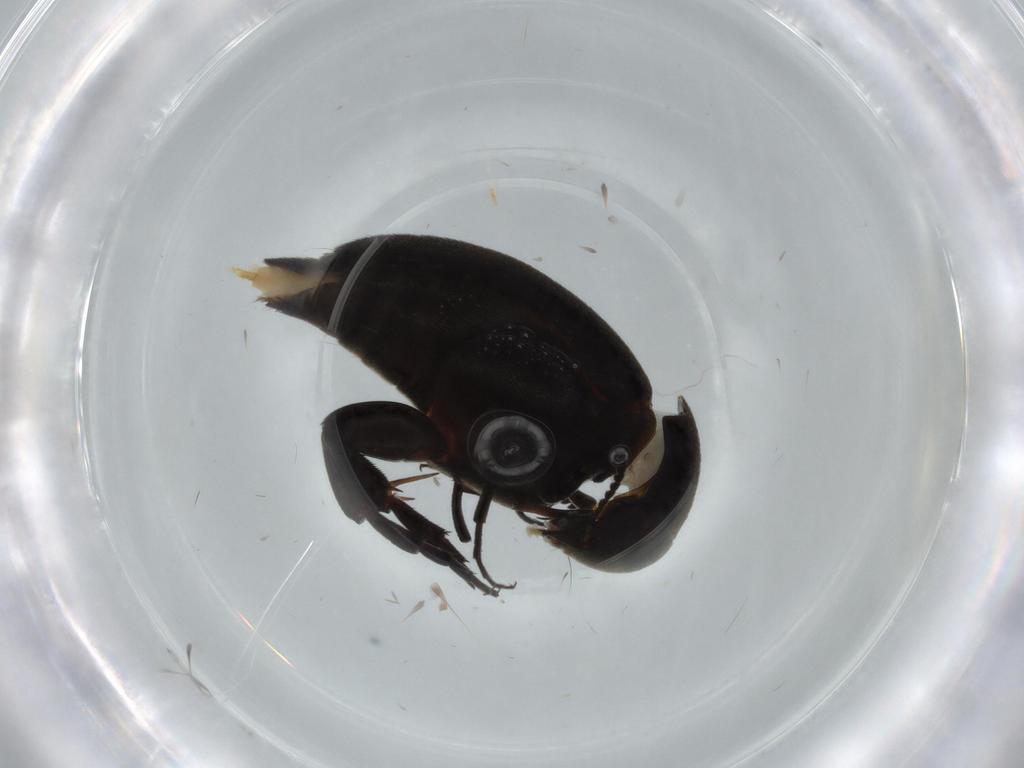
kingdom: Animalia
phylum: Arthropoda
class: Insecta
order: Coleoptera
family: Mordellidae
